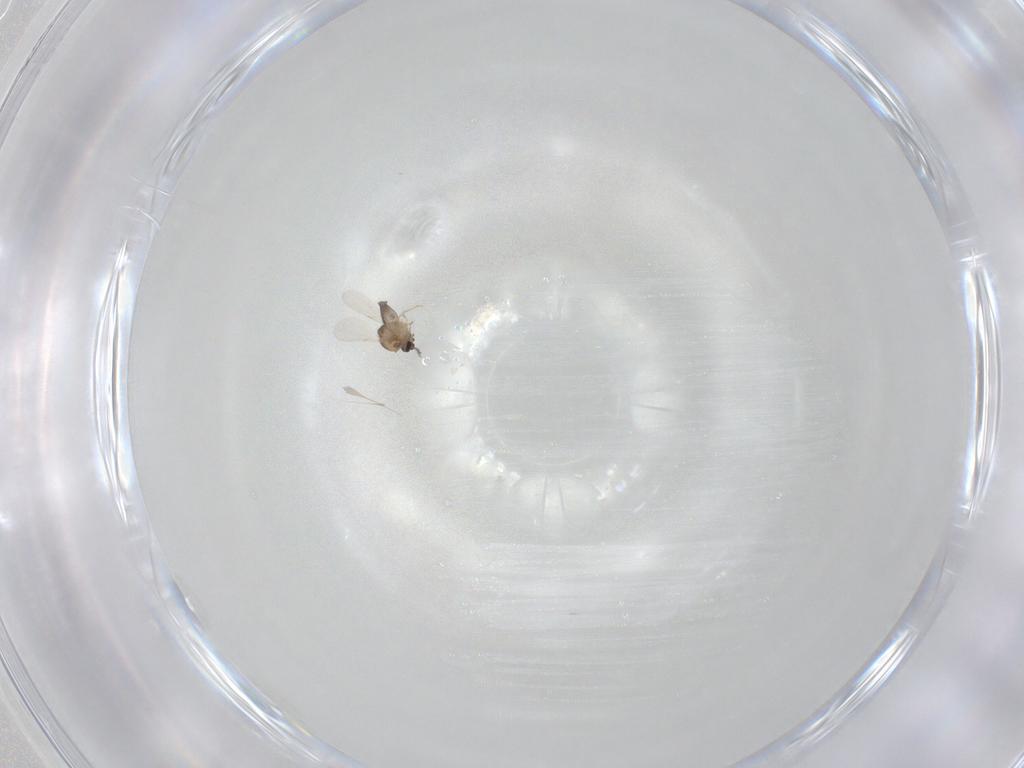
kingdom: Animalia
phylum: Arthropoda
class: Insecta
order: Diptera
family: Ceratopogonidae
